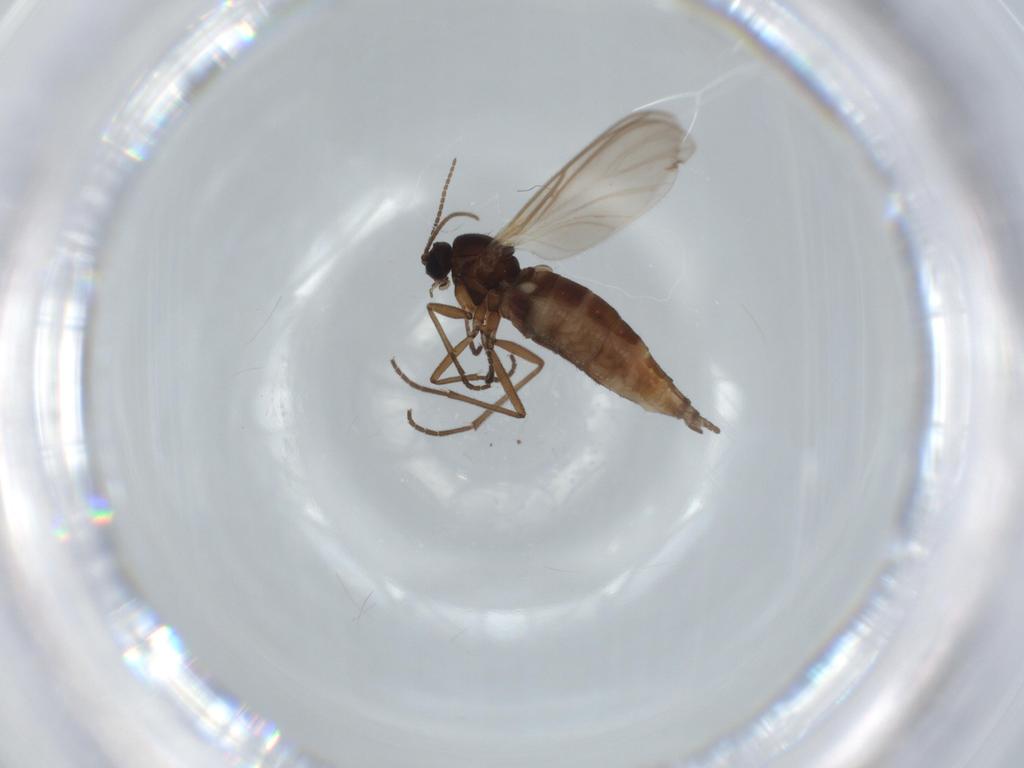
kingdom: Animalia
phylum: Arthropoda
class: Insecta
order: Diptera
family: Sciaridae
